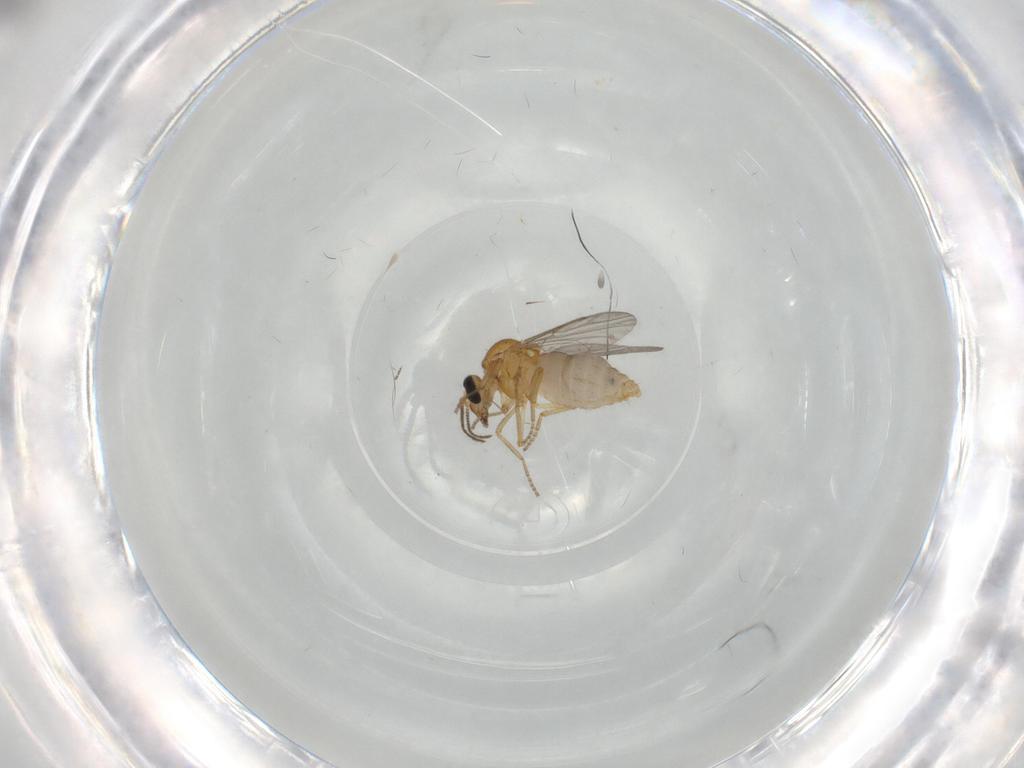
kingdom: Animalia
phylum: Arthropoda
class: Insecta
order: Diptera
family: Ceratopogonidae
